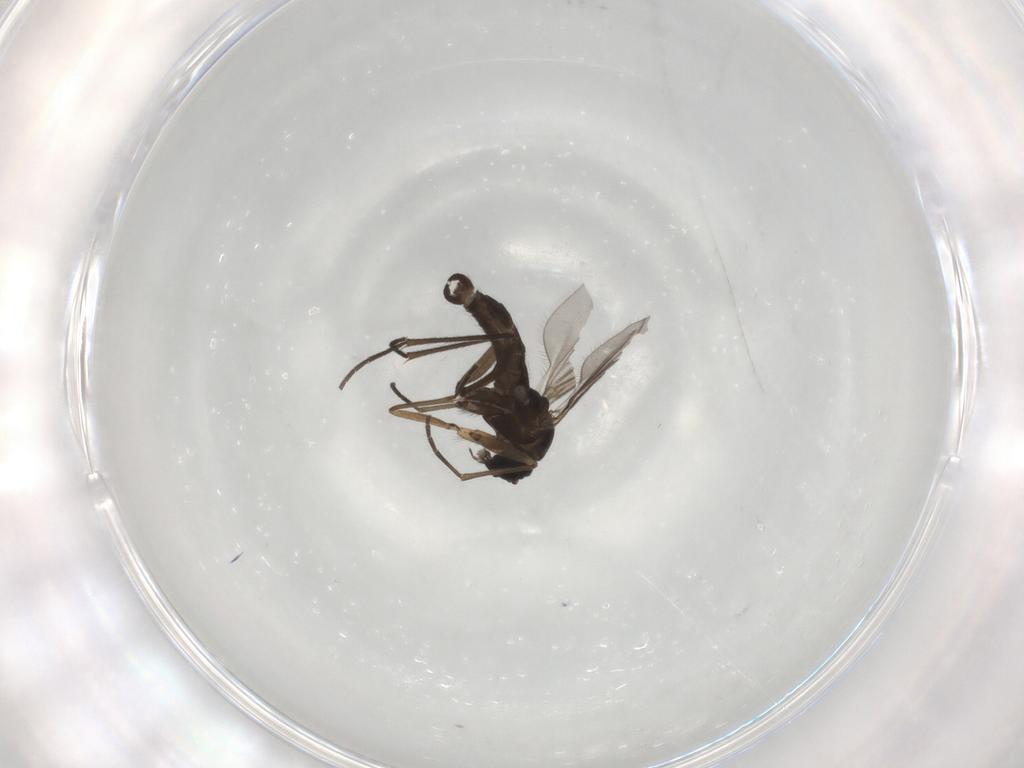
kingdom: Animalia
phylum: Arthropoda
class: Insecta
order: Diptera
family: Sciaridae
